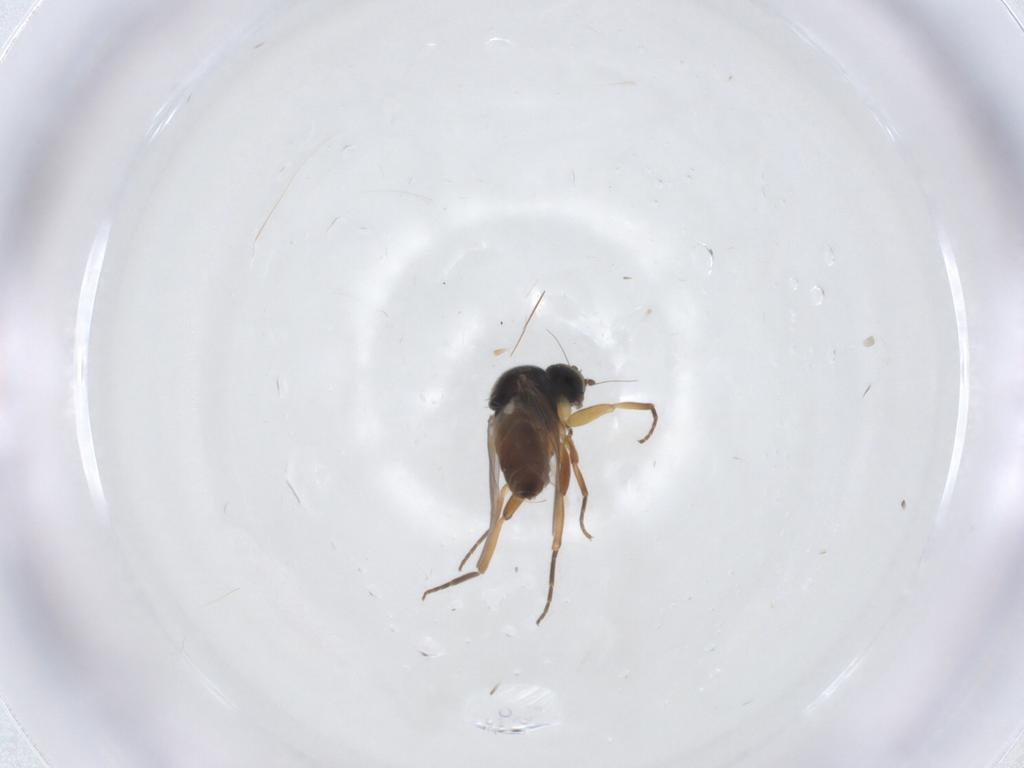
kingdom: Animalia
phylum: Arthropoda
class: Insecta
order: Diptera
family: Hybotidae
